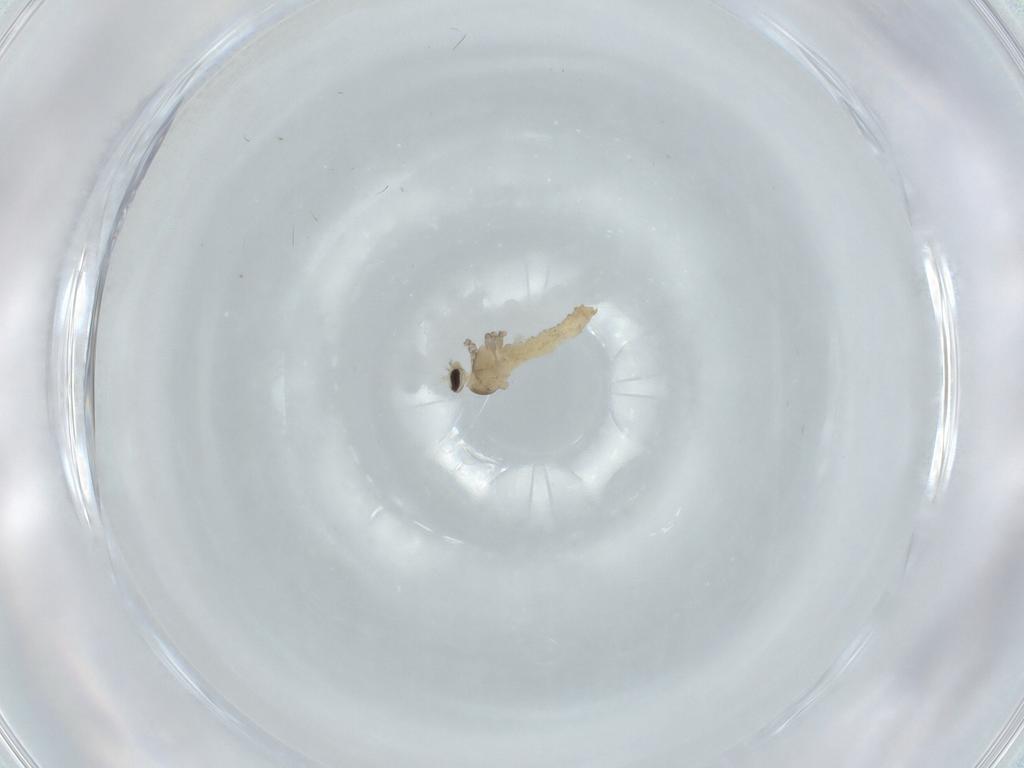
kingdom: Animalia
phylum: Arthropoda
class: Insecta
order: Diptera
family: Cecidomyiidae
